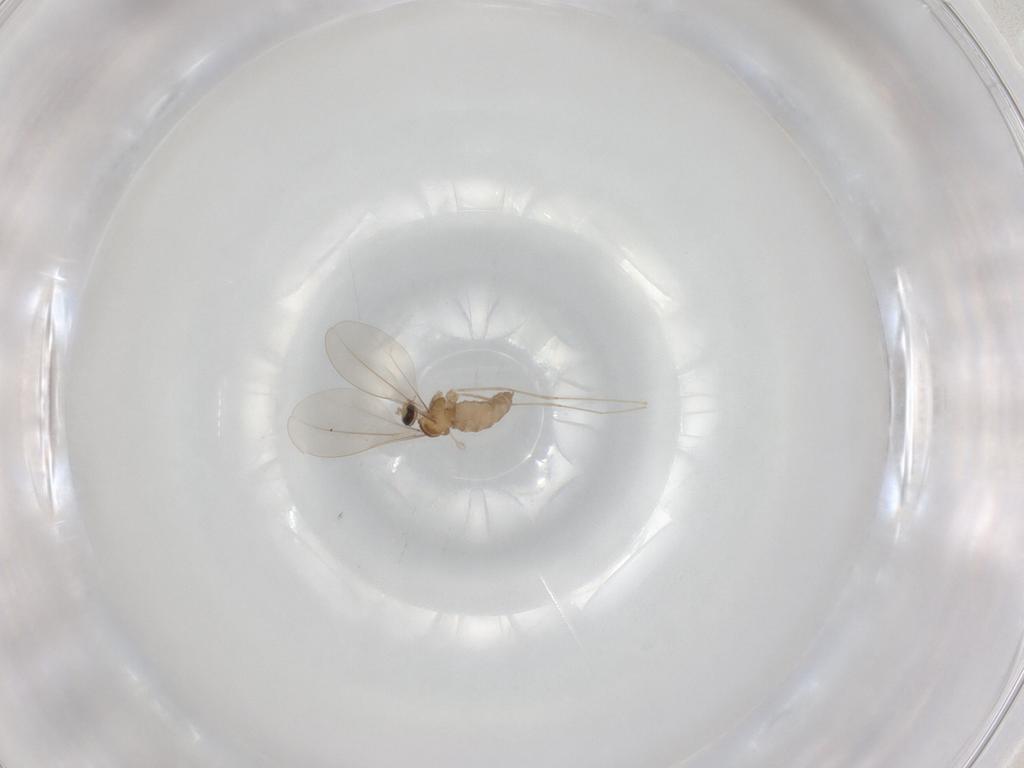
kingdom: Animalia
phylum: Arthropoda
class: Insecta
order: Diptera
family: Cecidomyiidae
